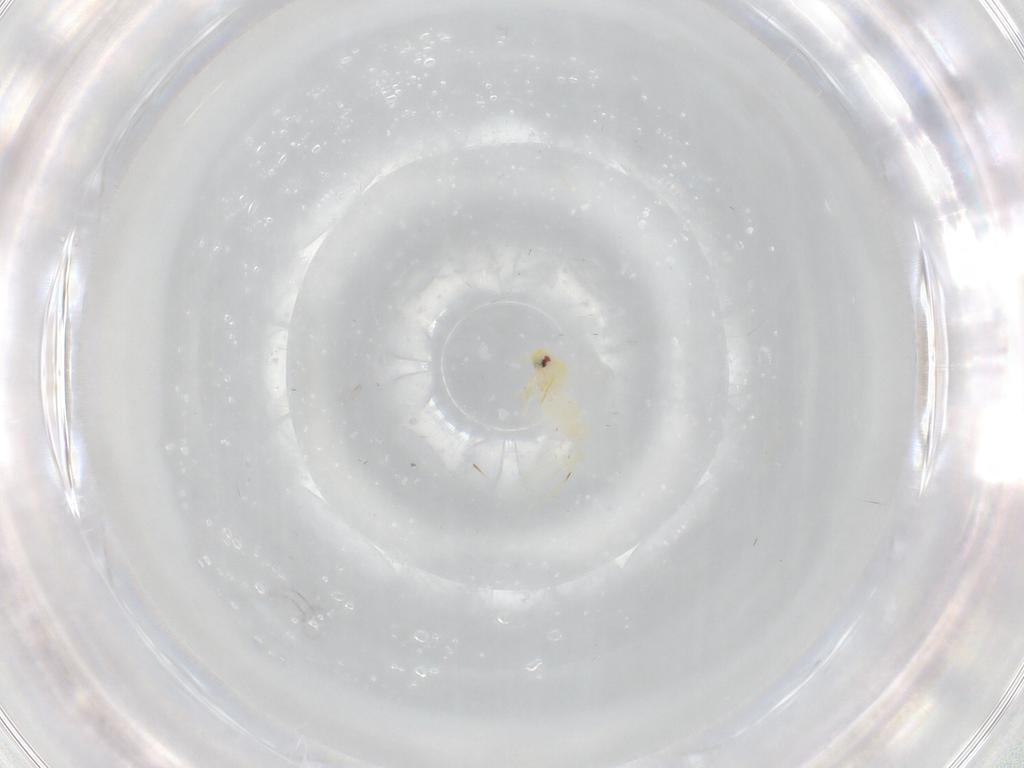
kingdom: Animalia
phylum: Arthropoda
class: Insecta
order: Hemiptera
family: Aleyrodidae
